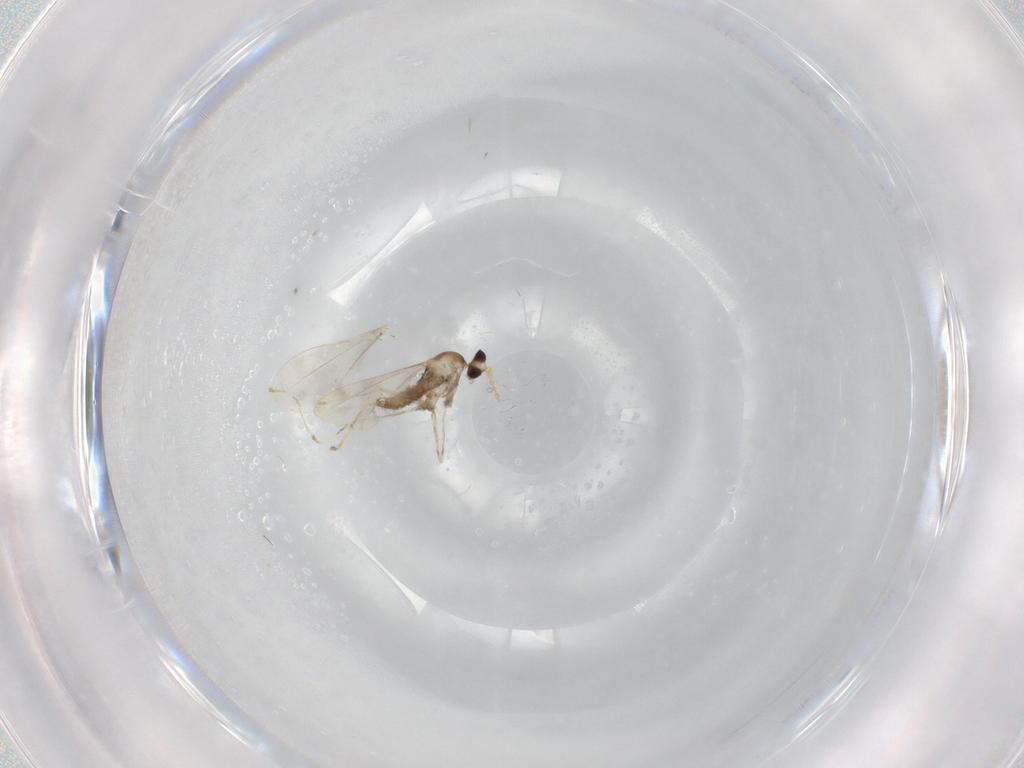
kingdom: Animalia
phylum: Arthropoda
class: Insecta
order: Diptera
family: Cecidomyiidae
